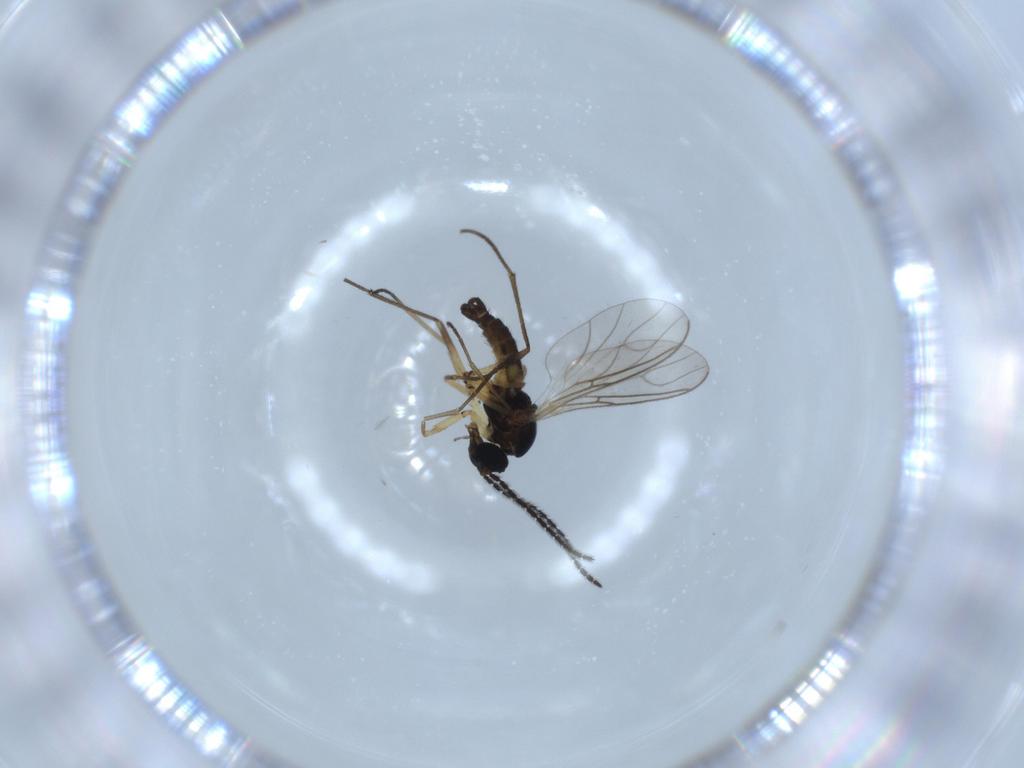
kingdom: Animalia
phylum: Arthropoda
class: Insecta
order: Diptera
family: Sciaridae
